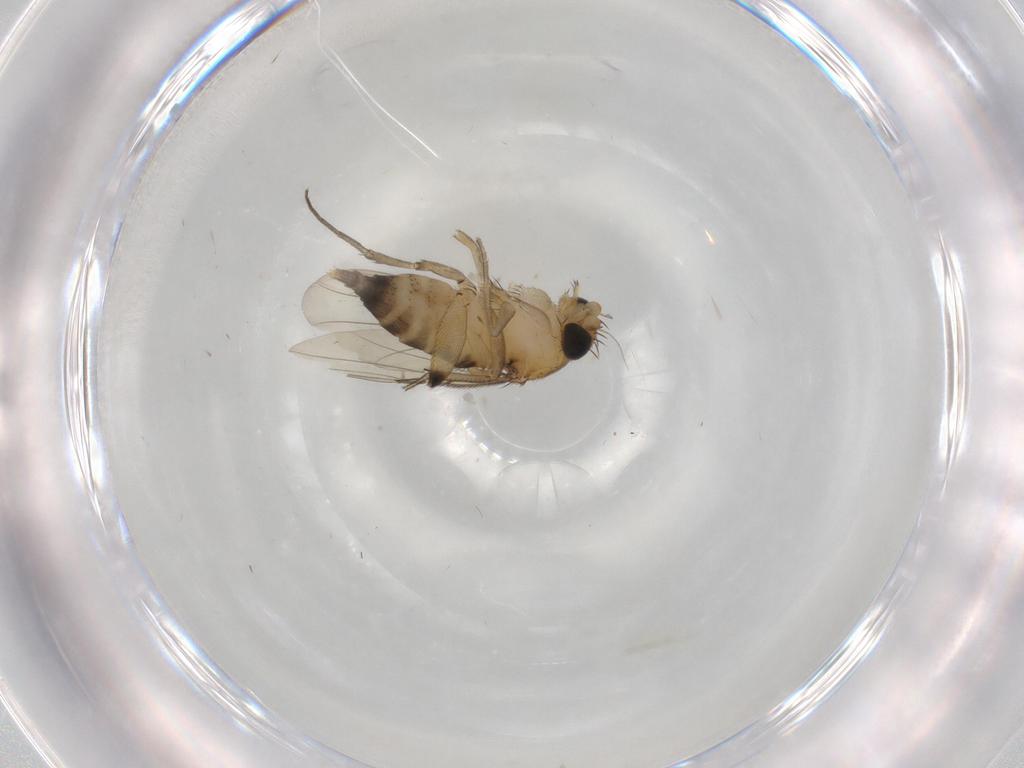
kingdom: Animalia
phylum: Arthropoda
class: Insecta
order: Diptera
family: Phoridae
